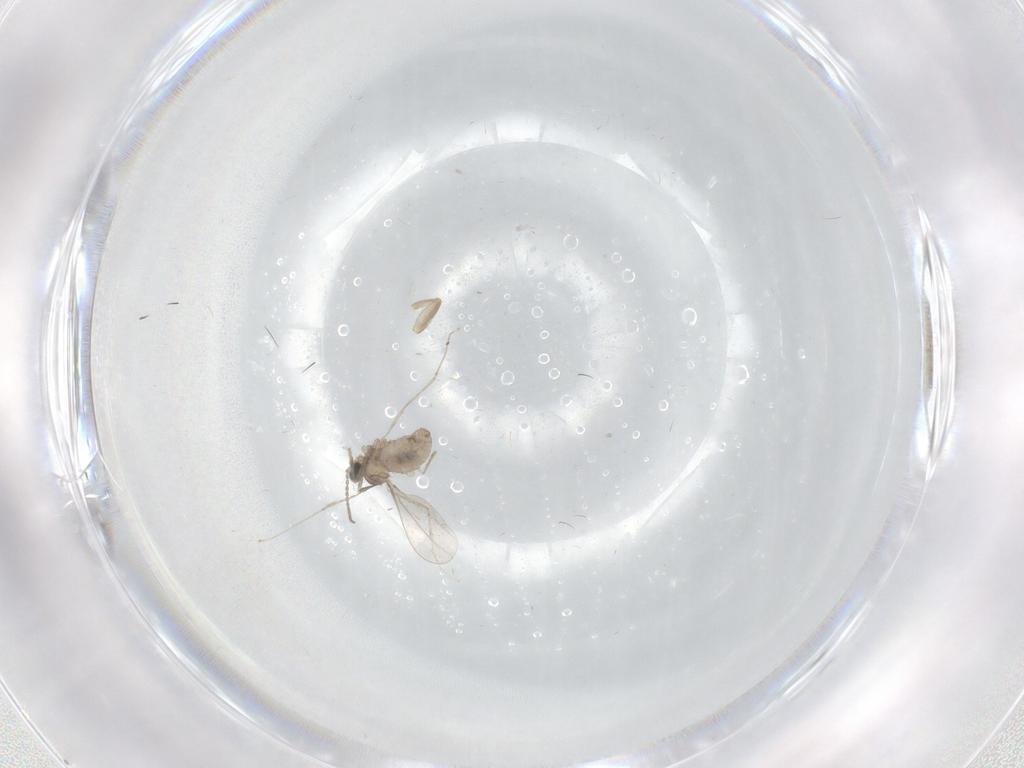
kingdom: Animalia
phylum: Arthropoda
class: Insecta
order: Diptera
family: Cecidomyiidae
